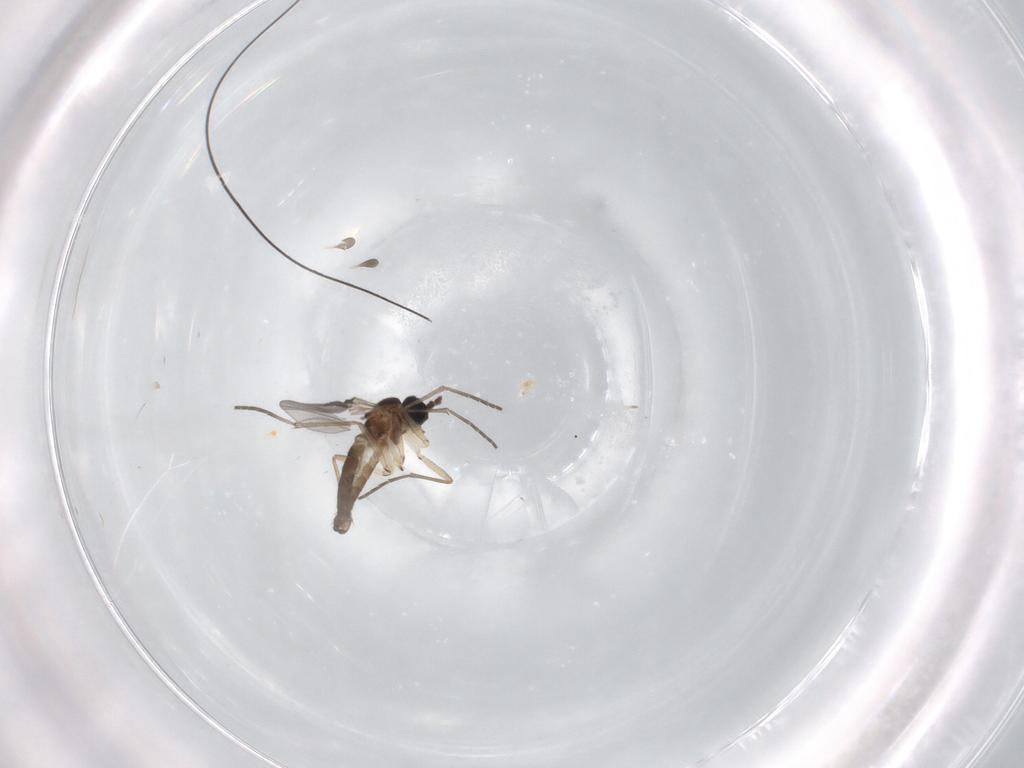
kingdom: Animalia
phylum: Arthropoda
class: Insecta
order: Diptera
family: Sciaridae
